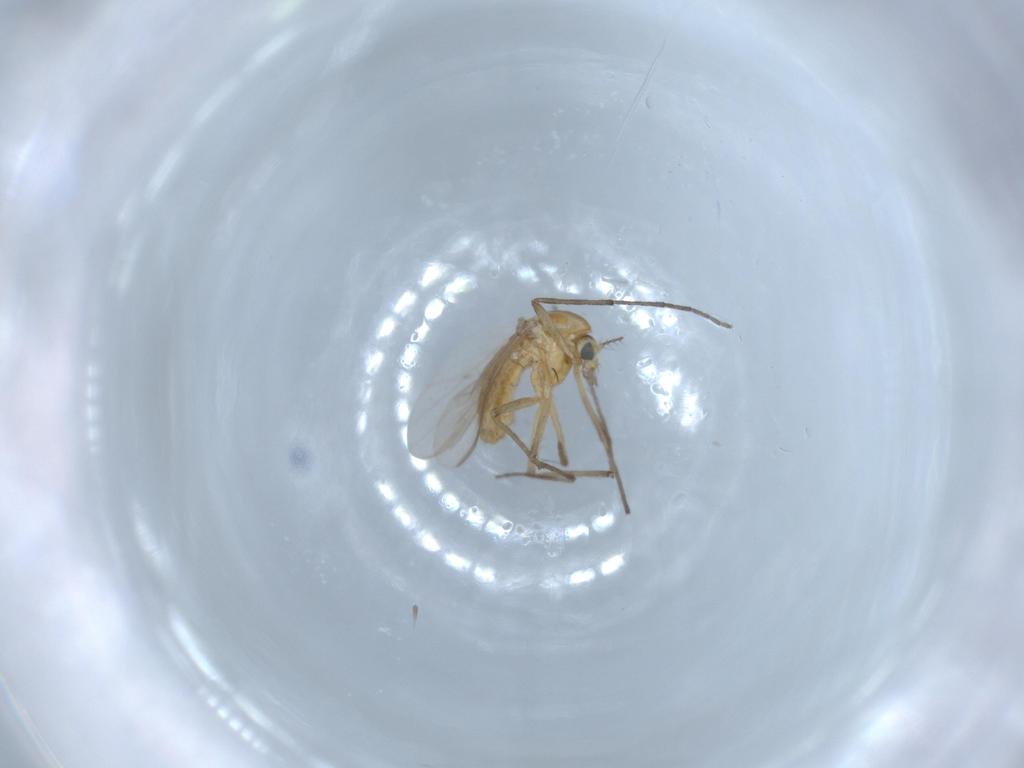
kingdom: Animalia
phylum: Arthropoda
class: Insecta
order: Diptera
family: Chironomidae
